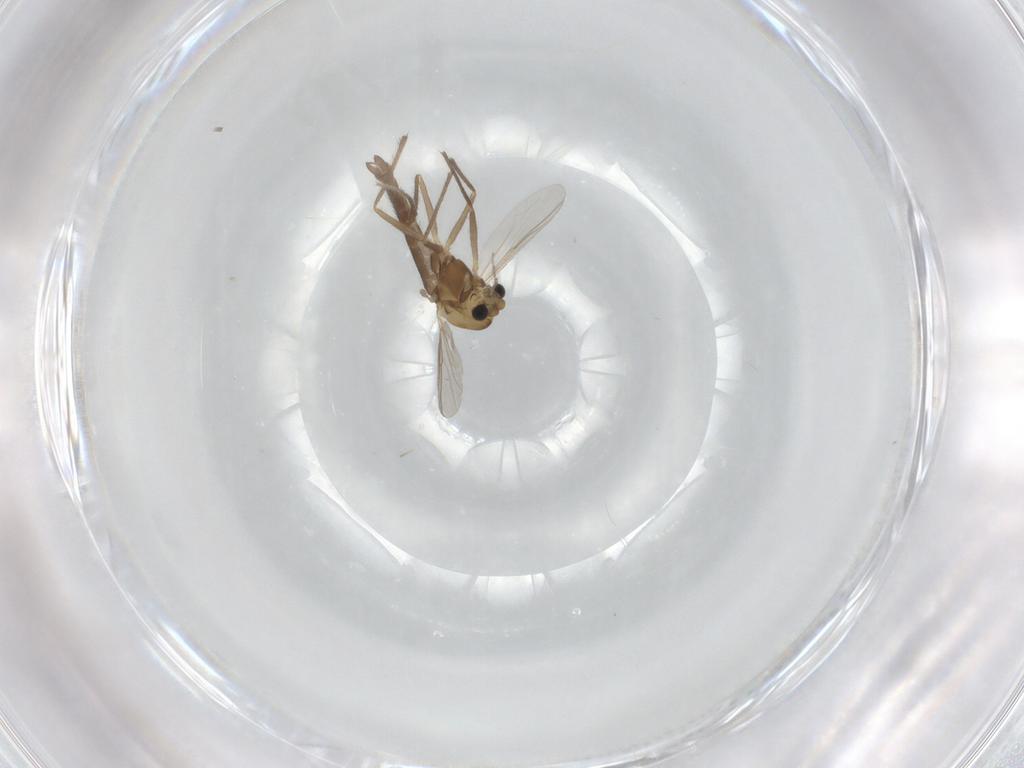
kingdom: Animalia
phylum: Arthropoda
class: Insecta
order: Diptera
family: Chironomidae
